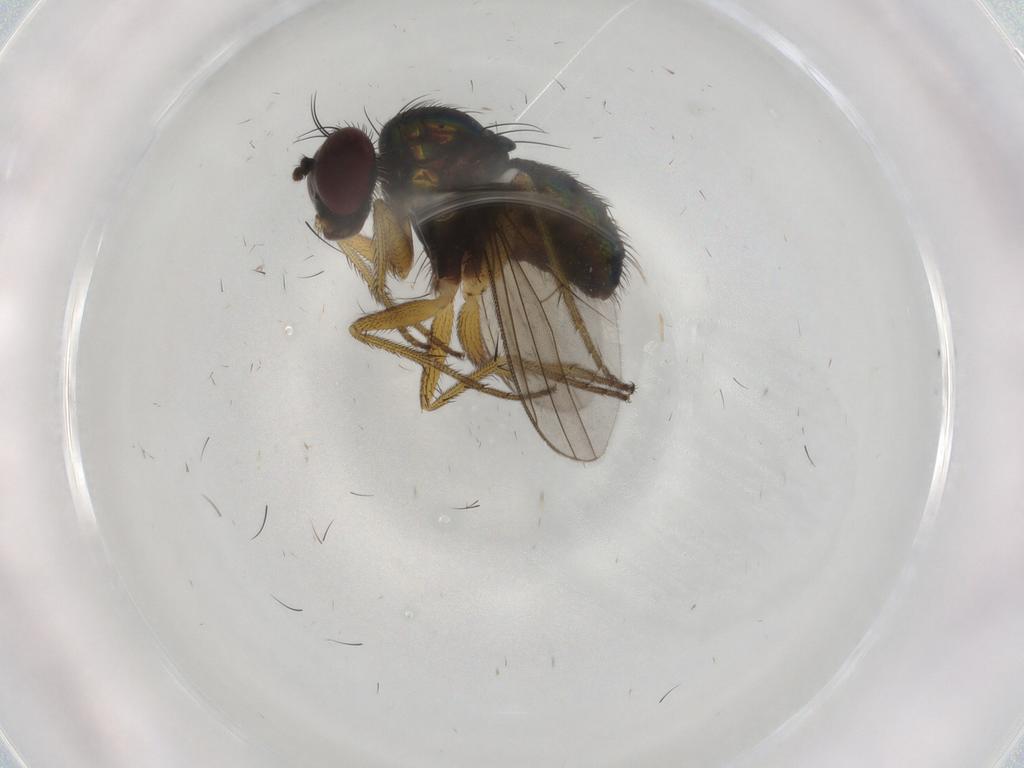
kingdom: Animalia
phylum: Arthropoda
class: Insecta
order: Diptera
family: Dolichopodidae
